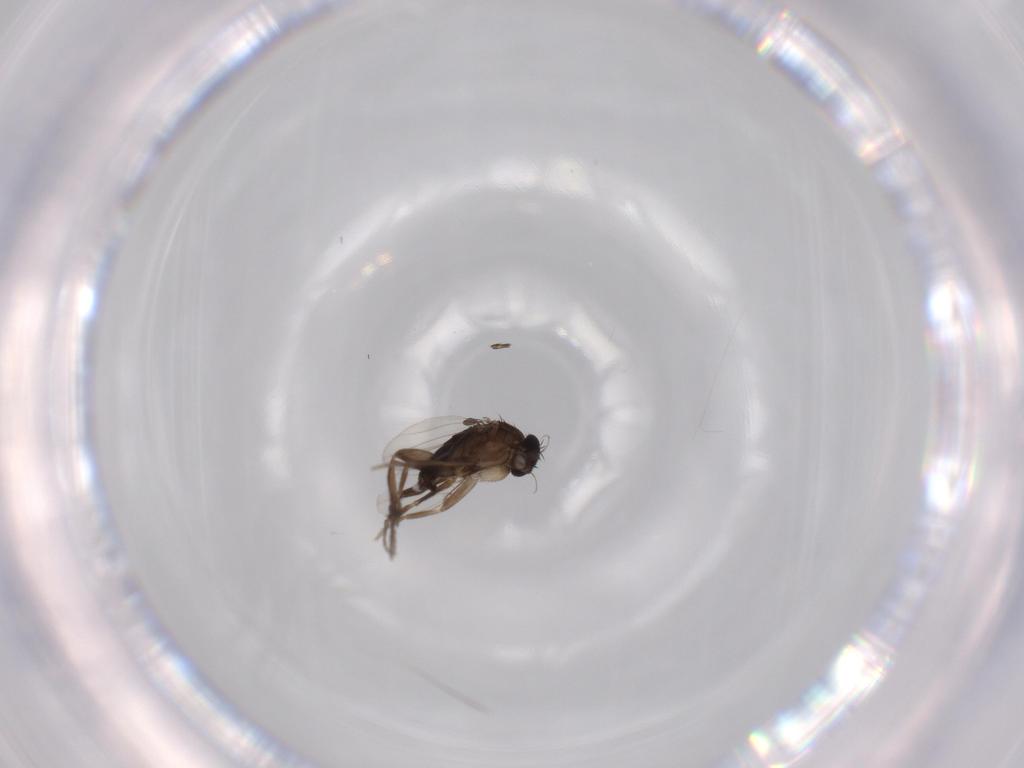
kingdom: Animalia
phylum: Arthropoda
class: Insecta
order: Diptera
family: Phoridae
